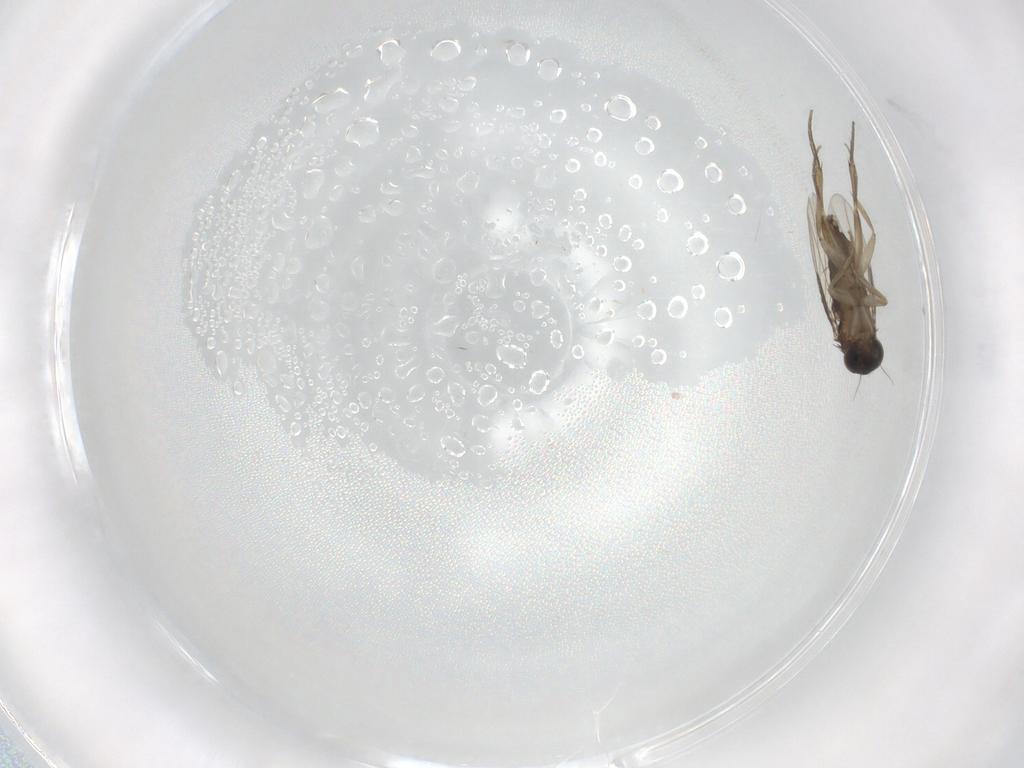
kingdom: Animalia
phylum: Arthropoda
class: Insecta
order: Diptera
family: Phoridae
